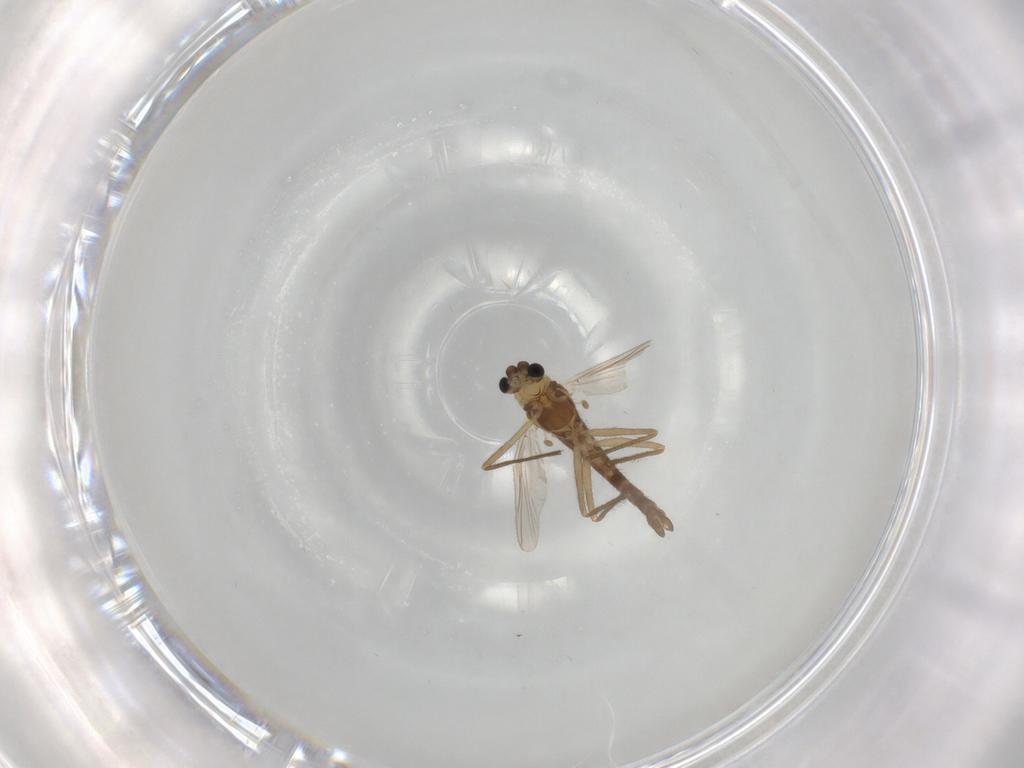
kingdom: Animalia
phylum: Arthropoda
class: Insecta
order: Diptera
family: Chironomidae
